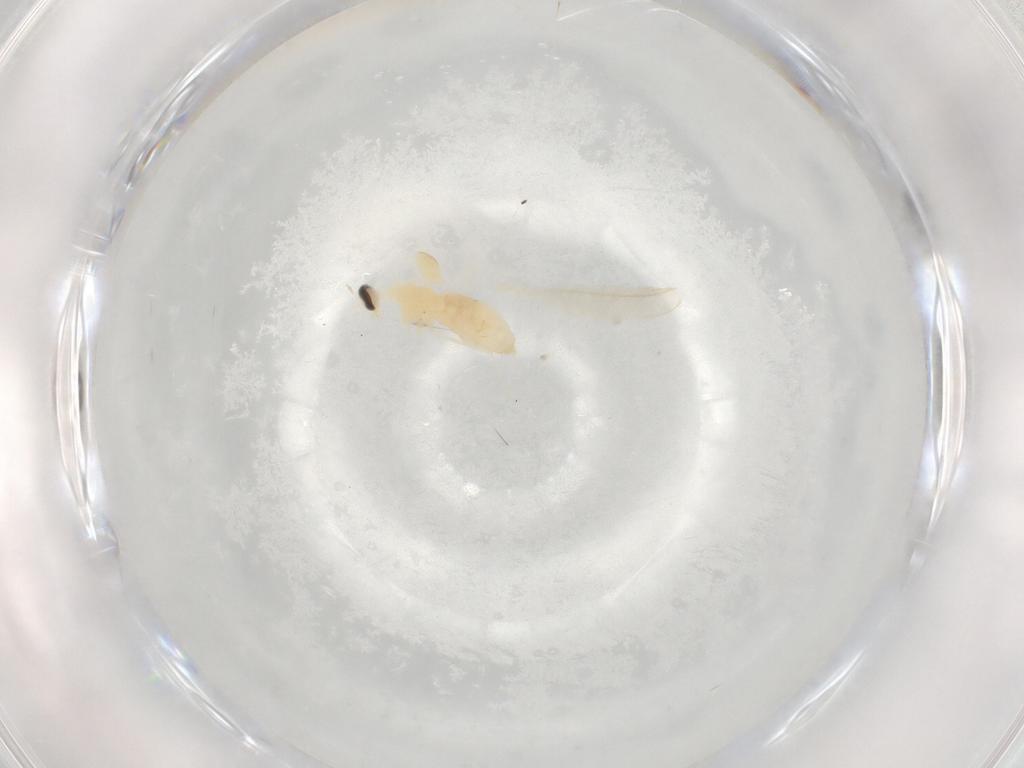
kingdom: Animalia
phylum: Arthropoda
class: Insecta
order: Diptera
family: Cecidomyiidae
